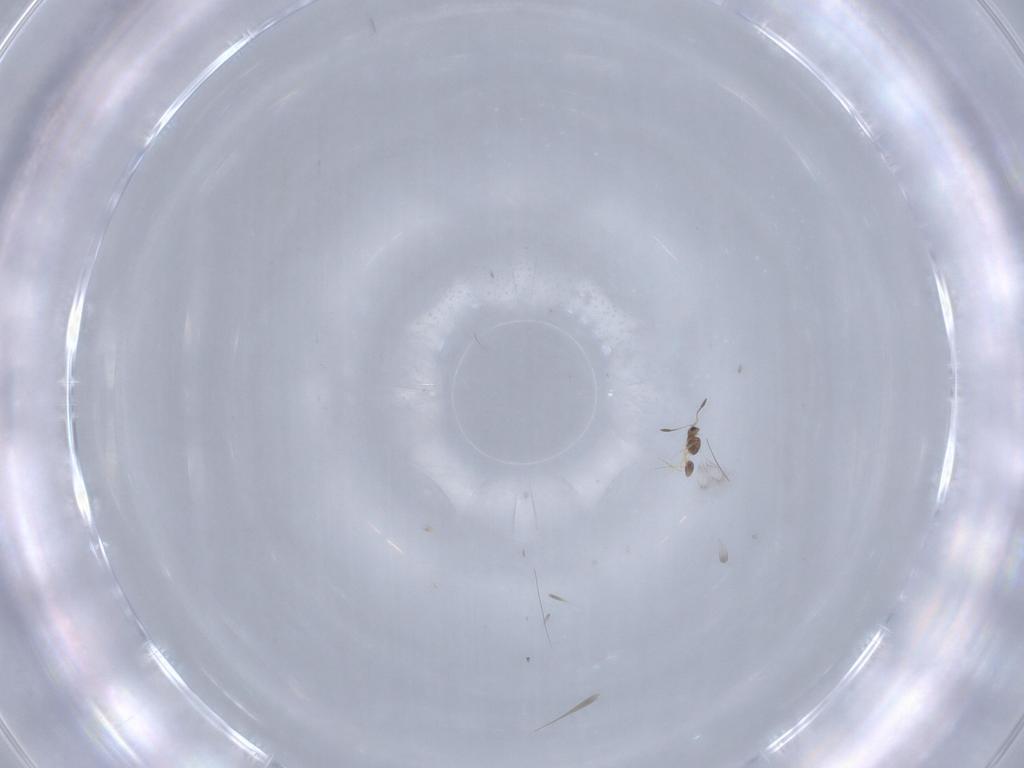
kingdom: Animalia
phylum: Arthropoda
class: Insecta
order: Hymenoptera
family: Mymarommatidae
